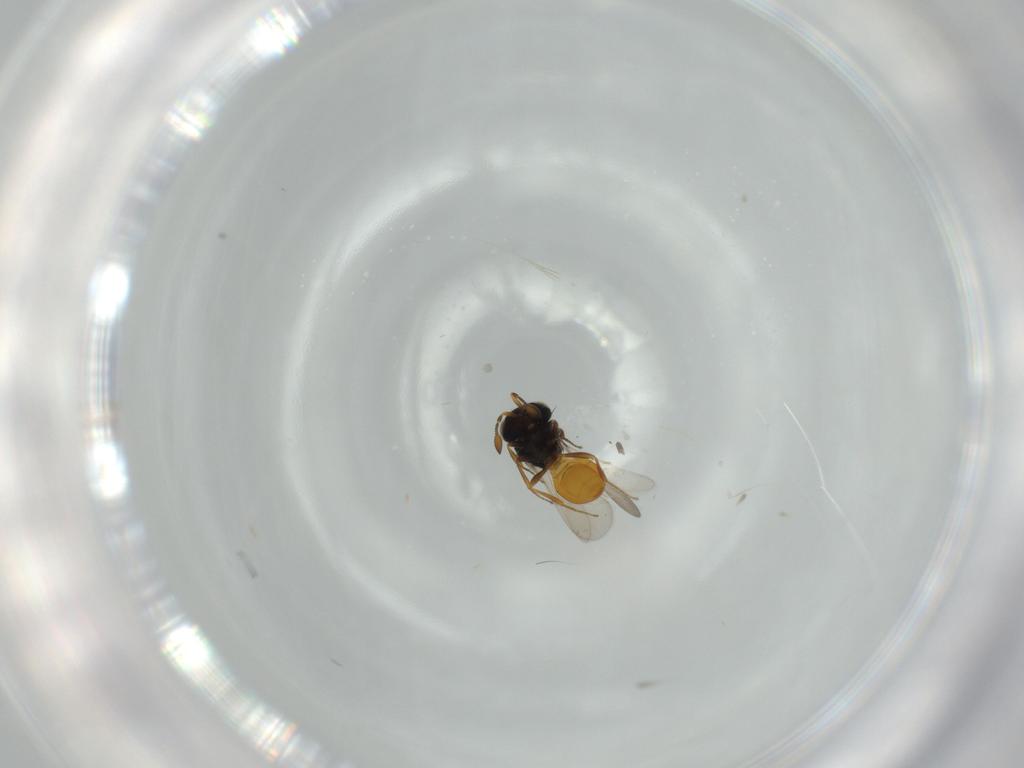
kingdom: Animalia
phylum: Arthropoda
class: Insecta
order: Hymenoptera
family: Scelionidae
